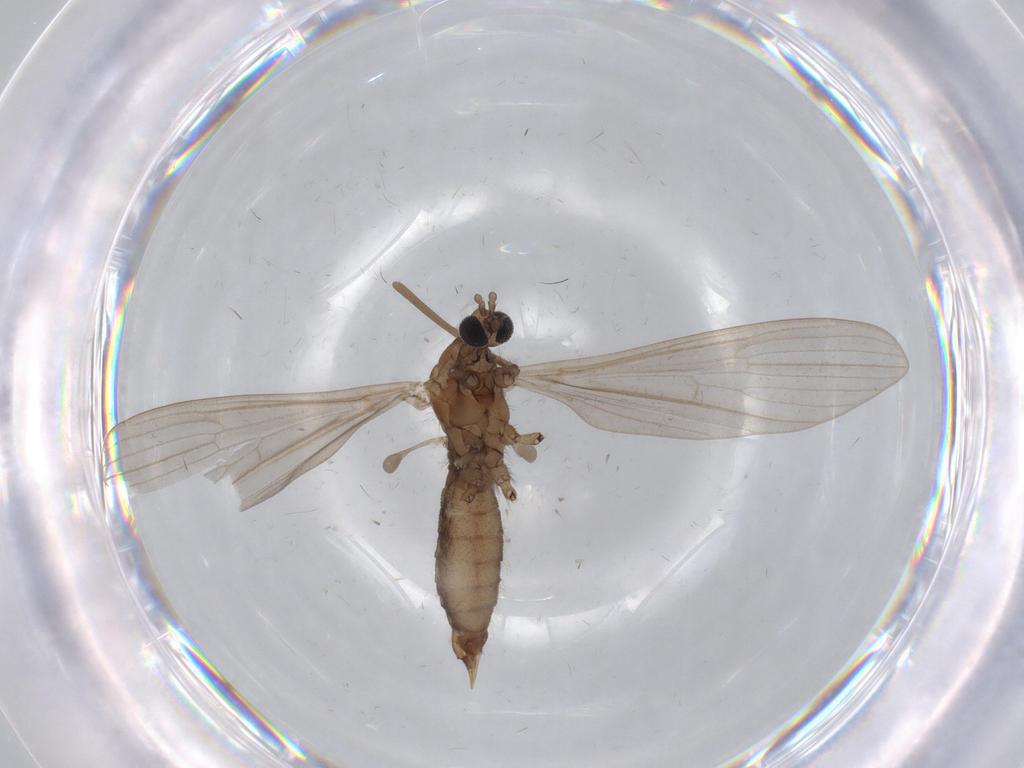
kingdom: Animalia
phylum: Arthropoda
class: Insecta
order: Diptera
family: Limoniidae
